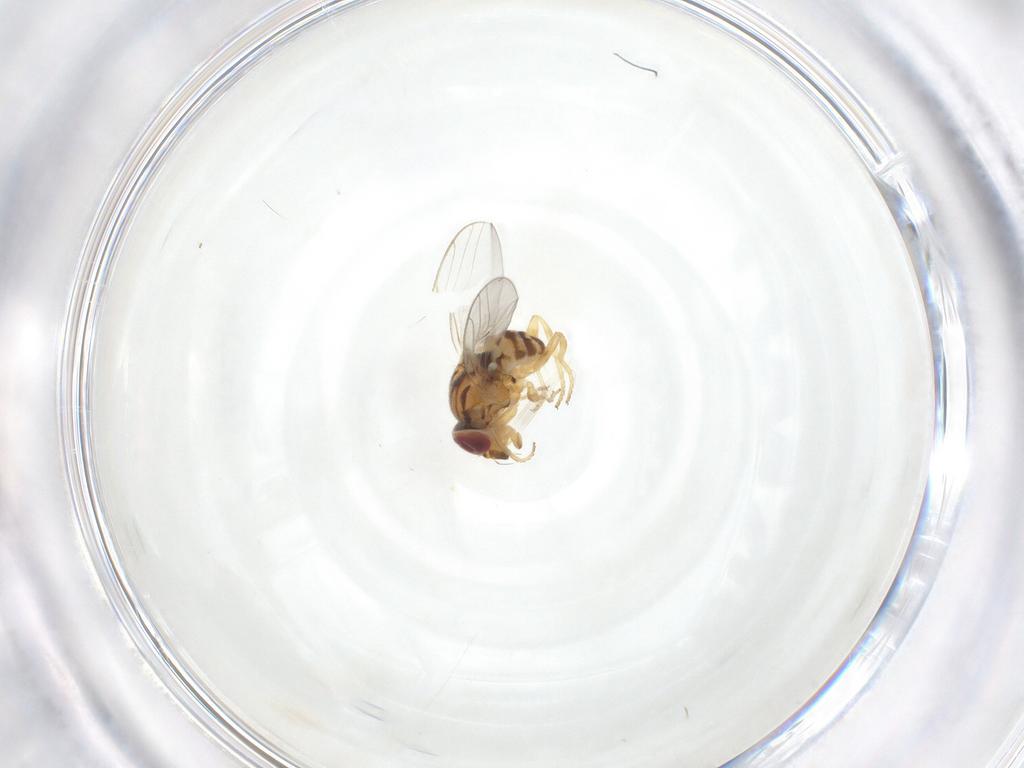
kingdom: Animalia
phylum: Arthropoda
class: Insecta
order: Diptera
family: Chloropidae
